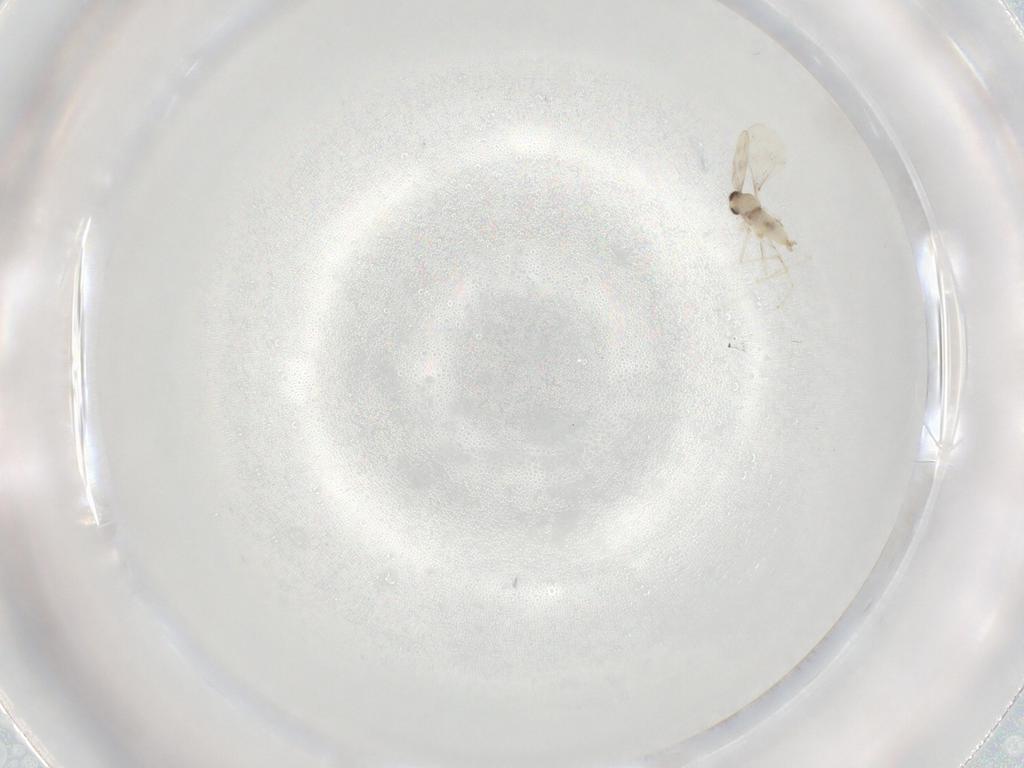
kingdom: Animalia
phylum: Arthropoda
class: Insecta
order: Diptera
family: Cecidomyiidae
